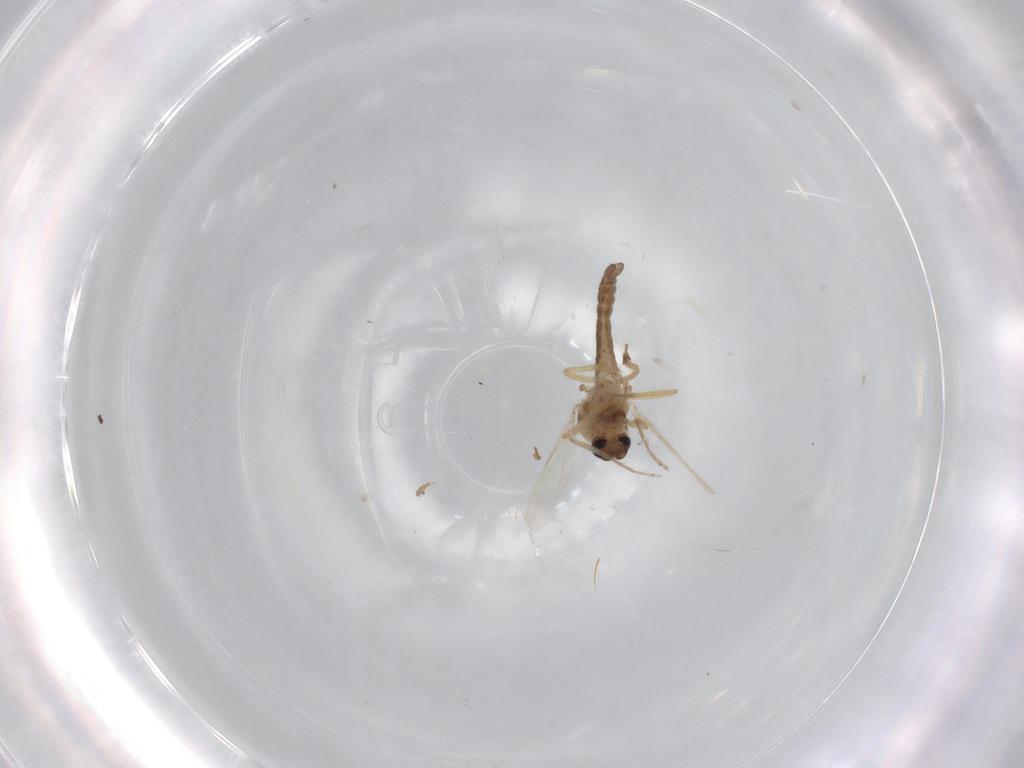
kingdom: Animalia
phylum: Arthropoda
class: Insecta
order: Diptera
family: Ceratopogonidae
